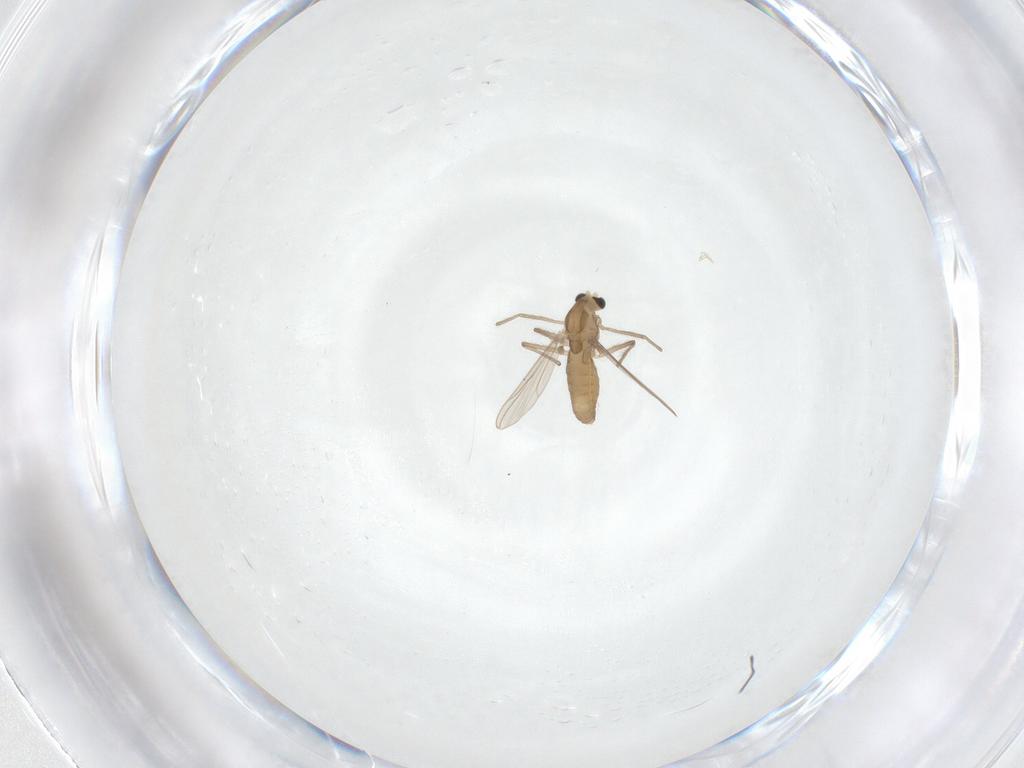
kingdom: Animalia
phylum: Arthropoda
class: Insecta
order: Diptera
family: Chironomidae
